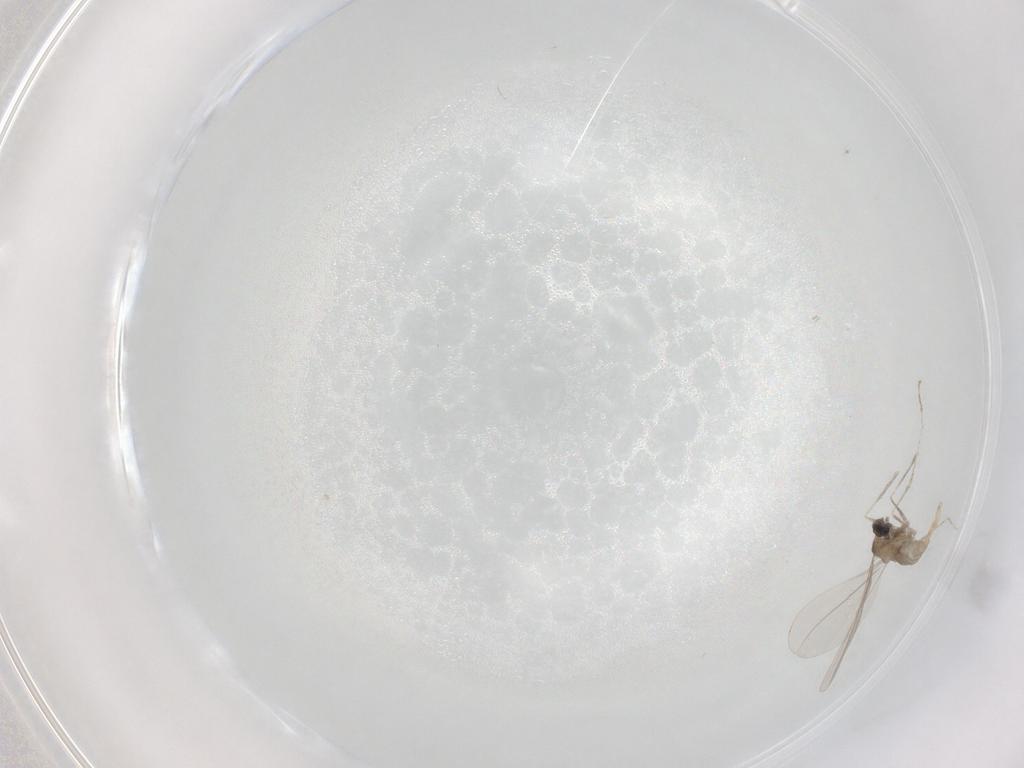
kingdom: Animalia
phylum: Arthropoda
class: Insecta
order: Diptera
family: Cecidomyiidae
